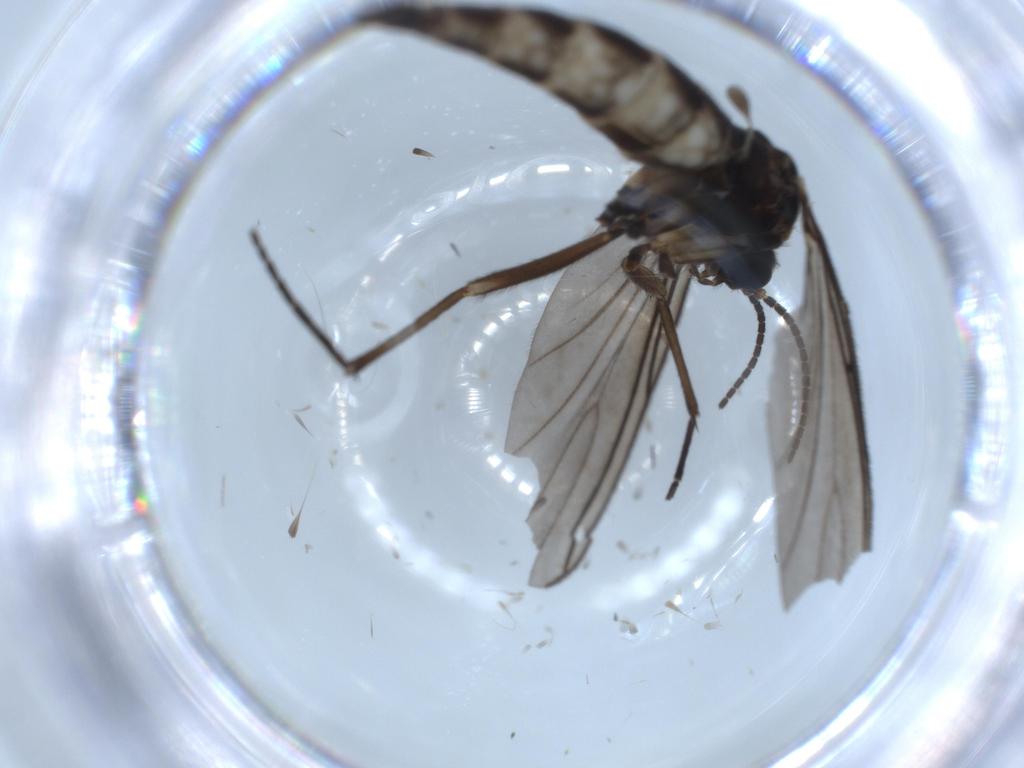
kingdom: Animalia
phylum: Arthropoda
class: Insecta
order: Diptera
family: Sciaridae
